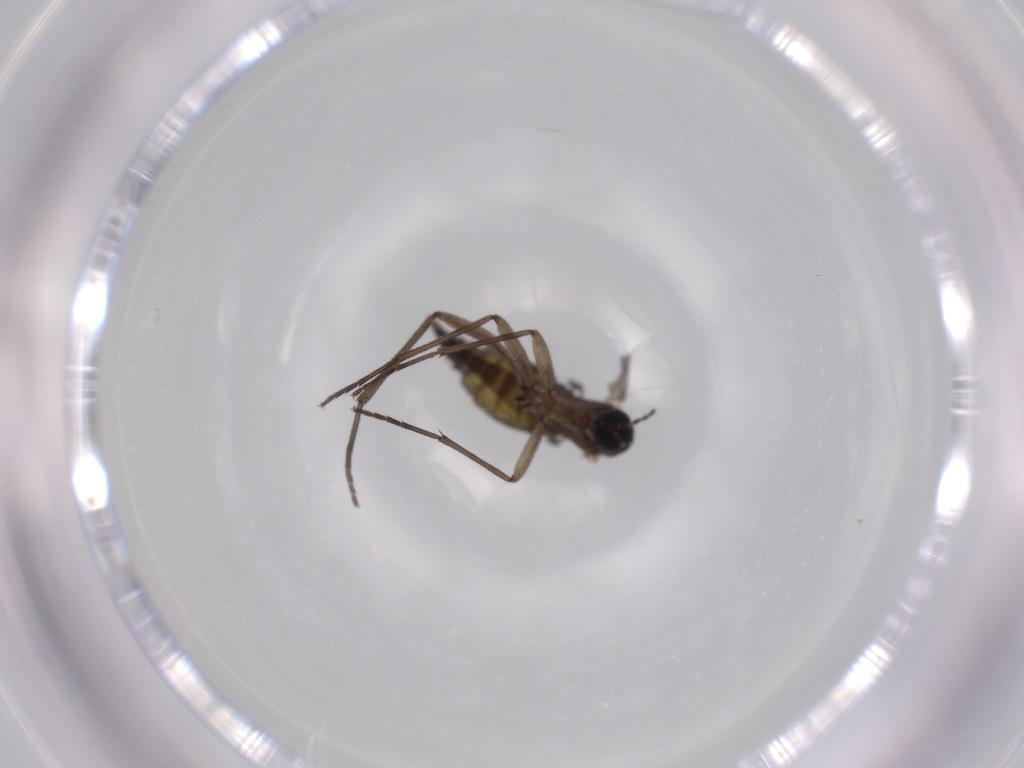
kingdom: Animalia
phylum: Arthropoda
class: Insecta
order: Diptera
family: Sciaridae
